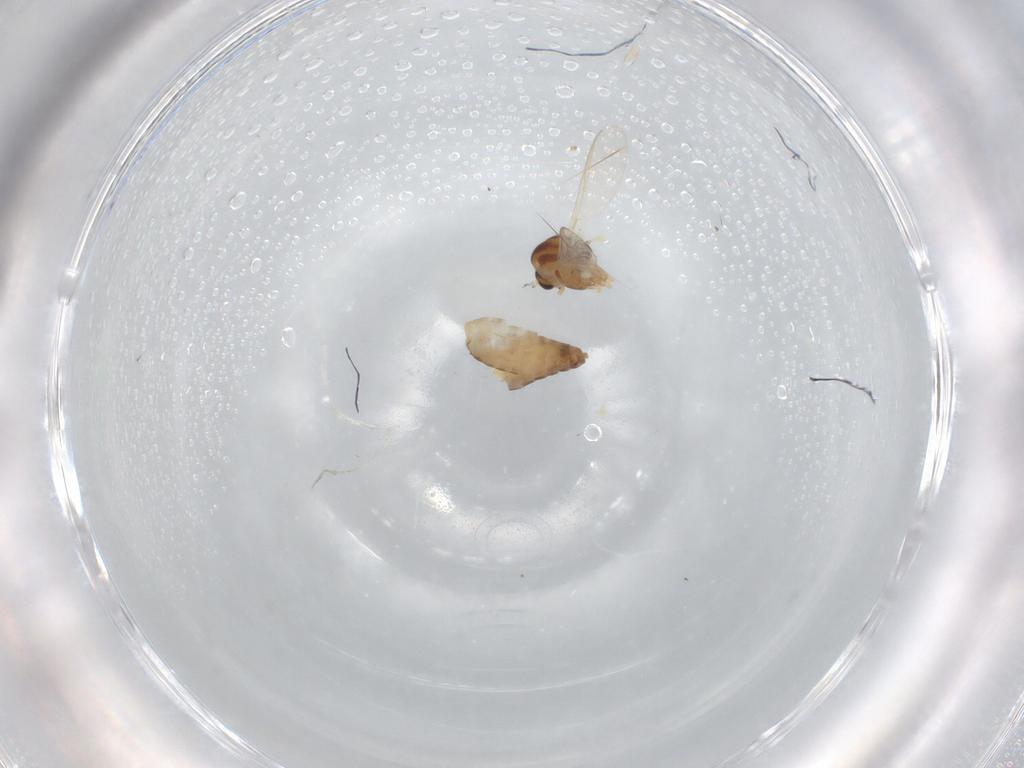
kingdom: Animalia
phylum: Arthropoda
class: Insecta
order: Diptera
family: Chironomidae
